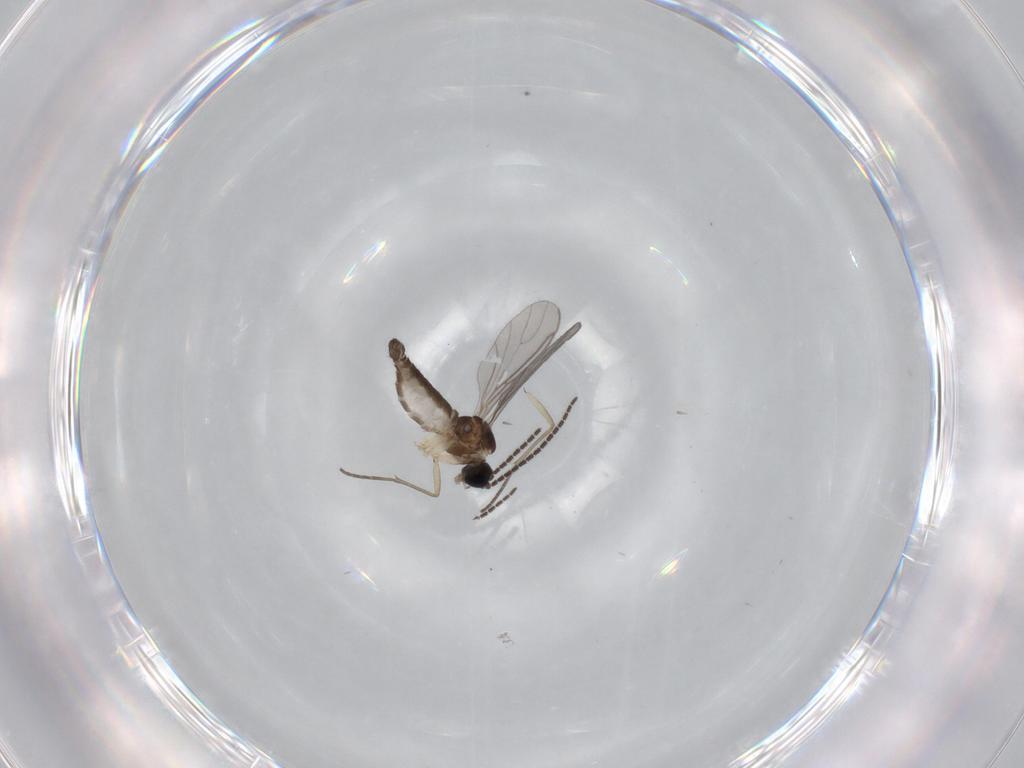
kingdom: Animalia
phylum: Arthropoda
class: Insecta
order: Diptera
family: Sciaridae
